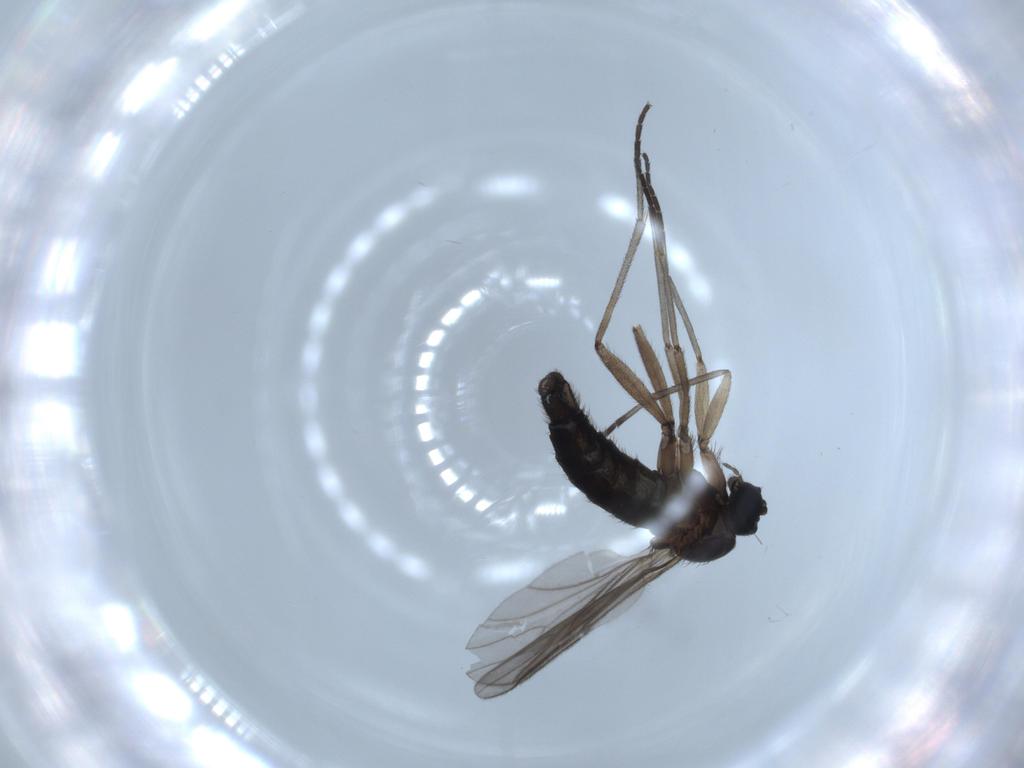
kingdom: Animalia
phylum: Arthropoda
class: Insecta
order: Diptera
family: Sciaridae
